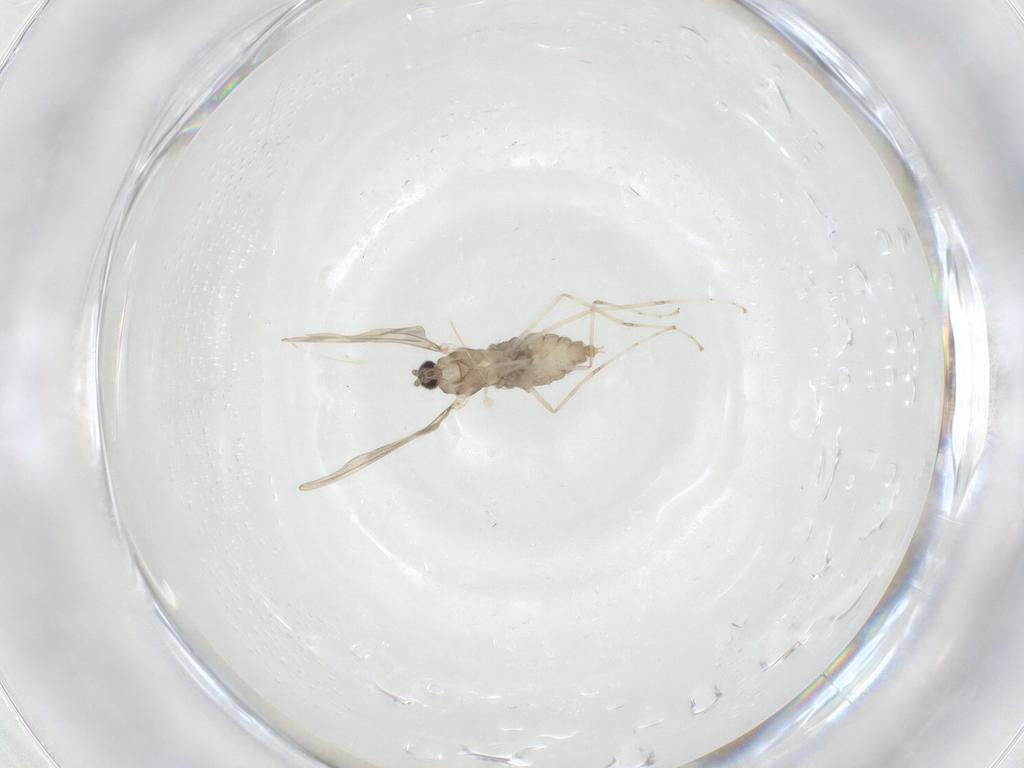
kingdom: Animalia
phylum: Arthropoda
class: Insecta
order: Diptera
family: Cecidomyiidae
